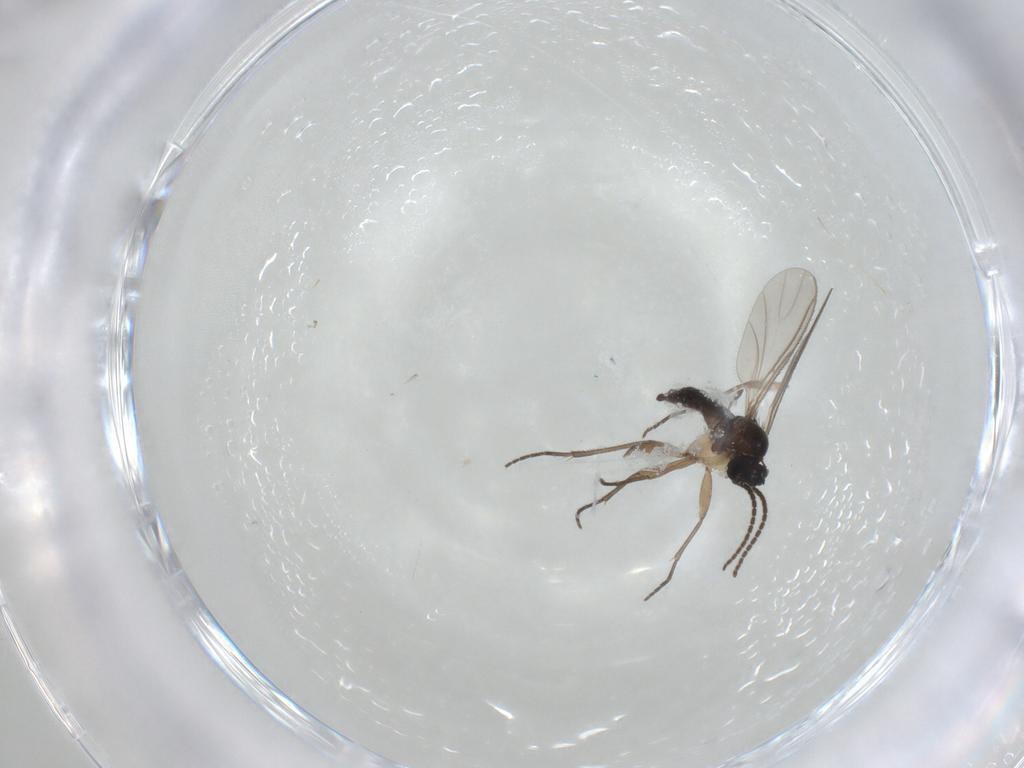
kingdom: Animalia
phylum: Arthropoda
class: Insecta
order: Diptera
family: Sciaridae
